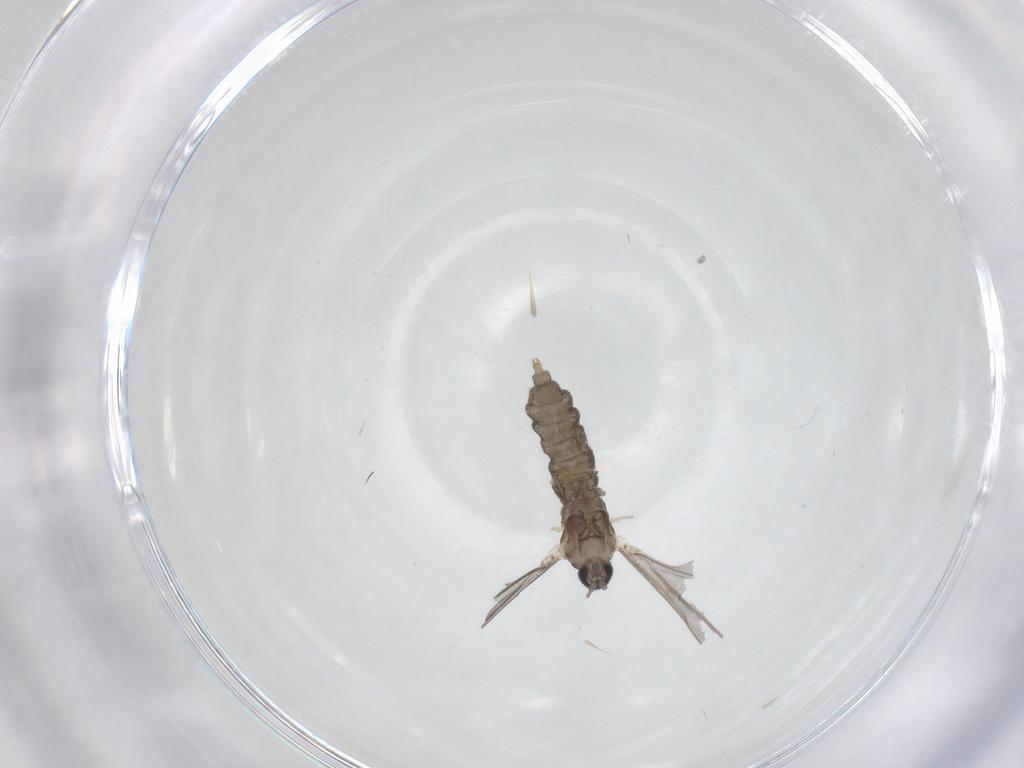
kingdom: Animalia
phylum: Arthropoda
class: Insecta
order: Diptera
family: Cecidomyiidae
